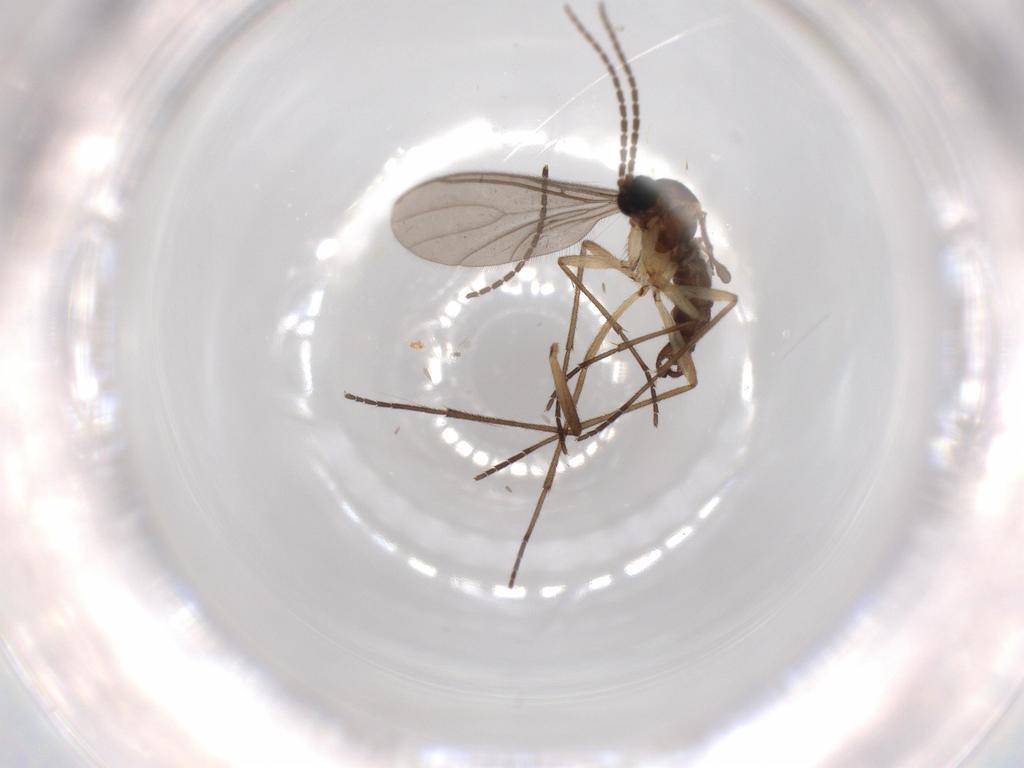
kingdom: Animalia
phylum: Arthropoda
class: Insecta
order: Diptera
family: Sciaridae
